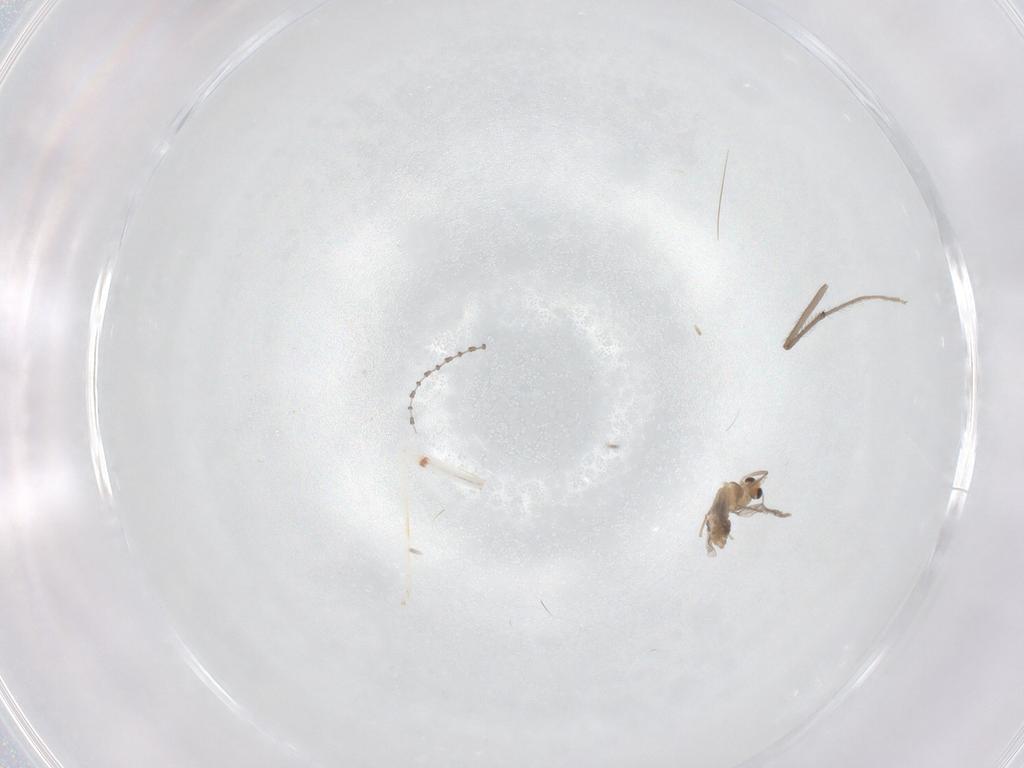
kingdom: Animalia
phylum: Arthropoda
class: Insecta
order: Diptera
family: Chironomidae
